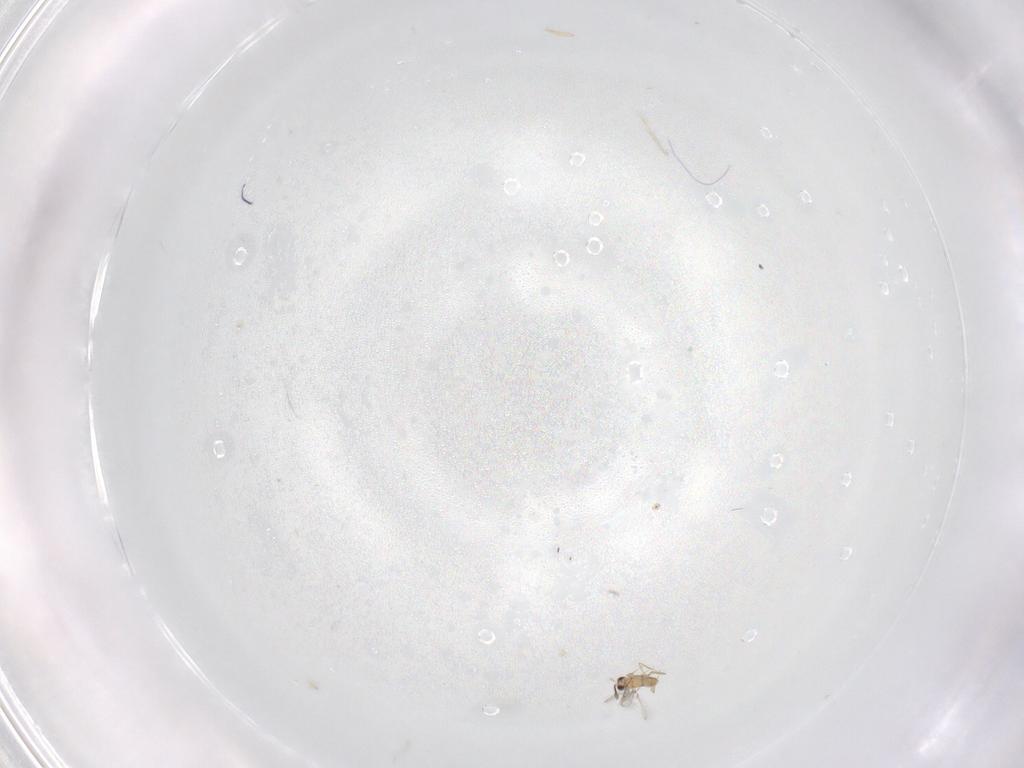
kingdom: Animalia
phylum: Arthropoda
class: Insecta
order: Hymenoptera
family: Mymaridae
